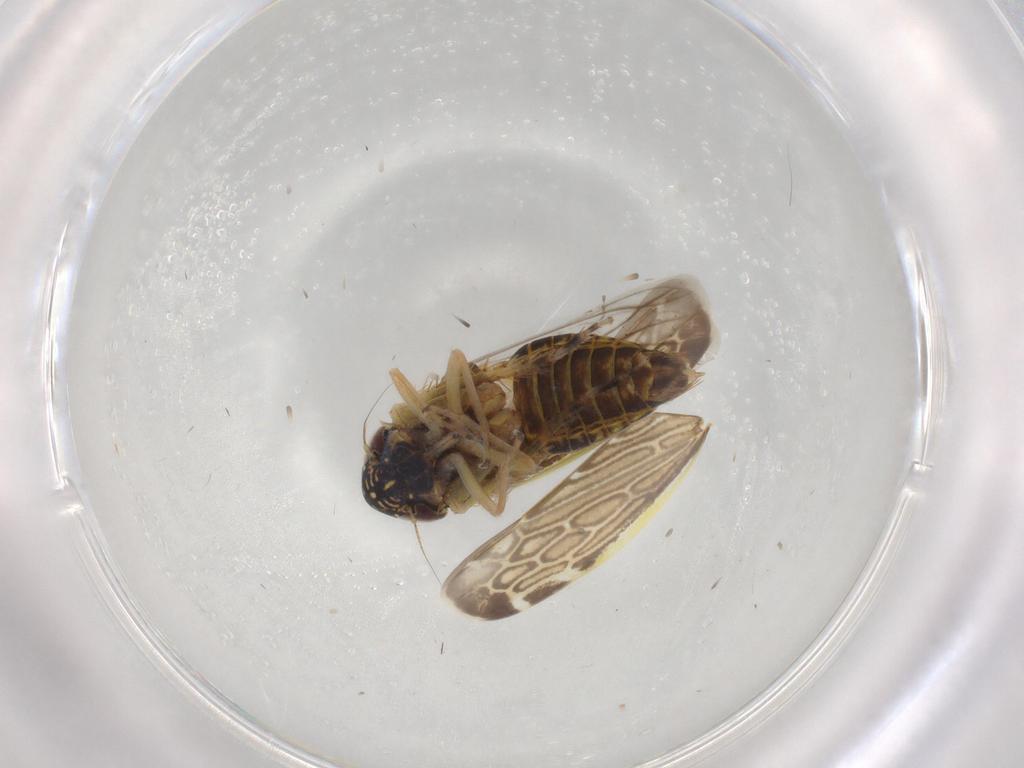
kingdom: Animalia
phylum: Arthropoda
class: Insecta
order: Hemiptera
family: Cicadellidae
